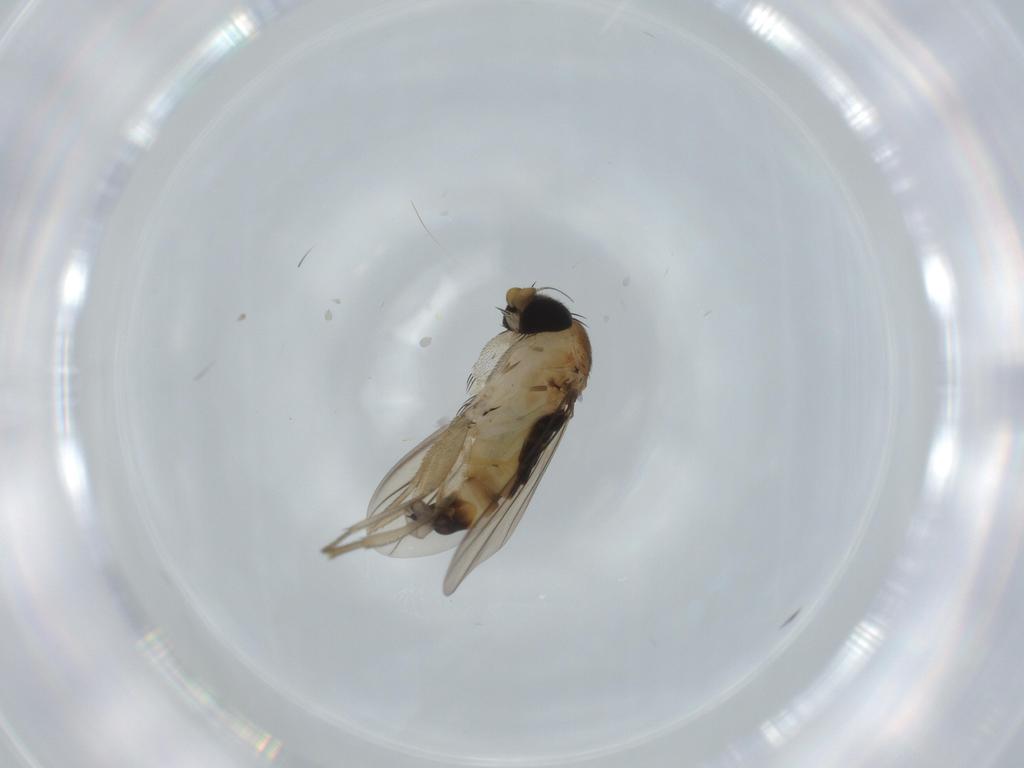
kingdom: Animalia
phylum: Arthropoda
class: Insecta
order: Diptera
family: Phoridae
